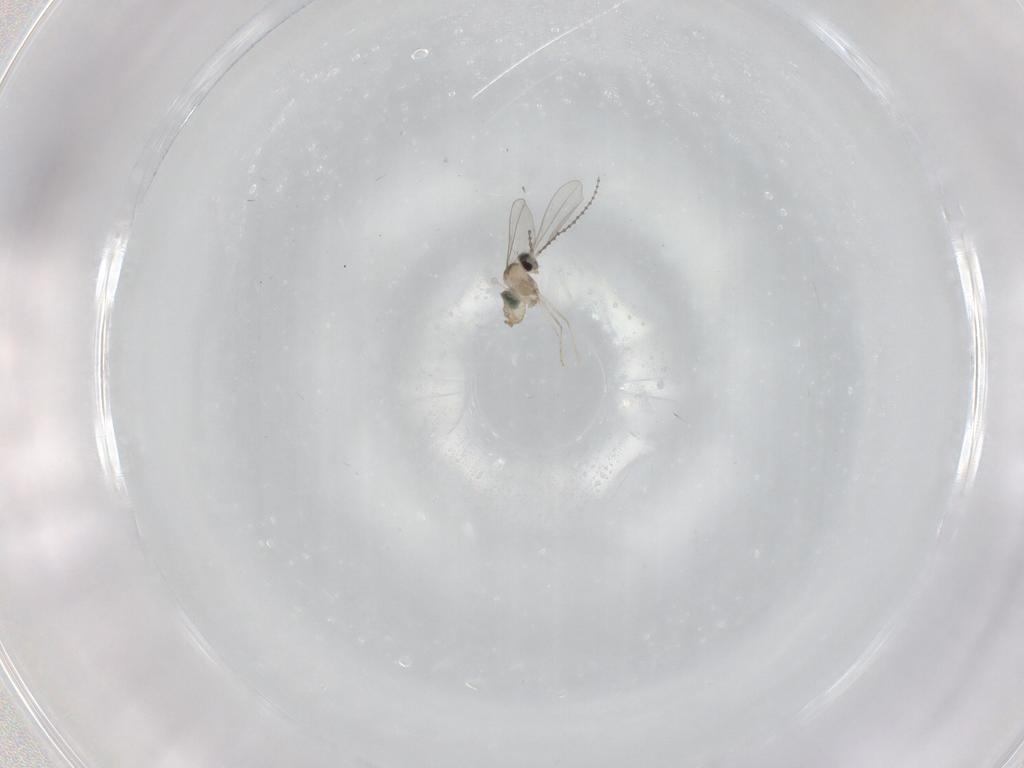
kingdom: Animalia
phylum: Arthropoda
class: Insecta
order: Diptera
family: Cecidomyiidae
